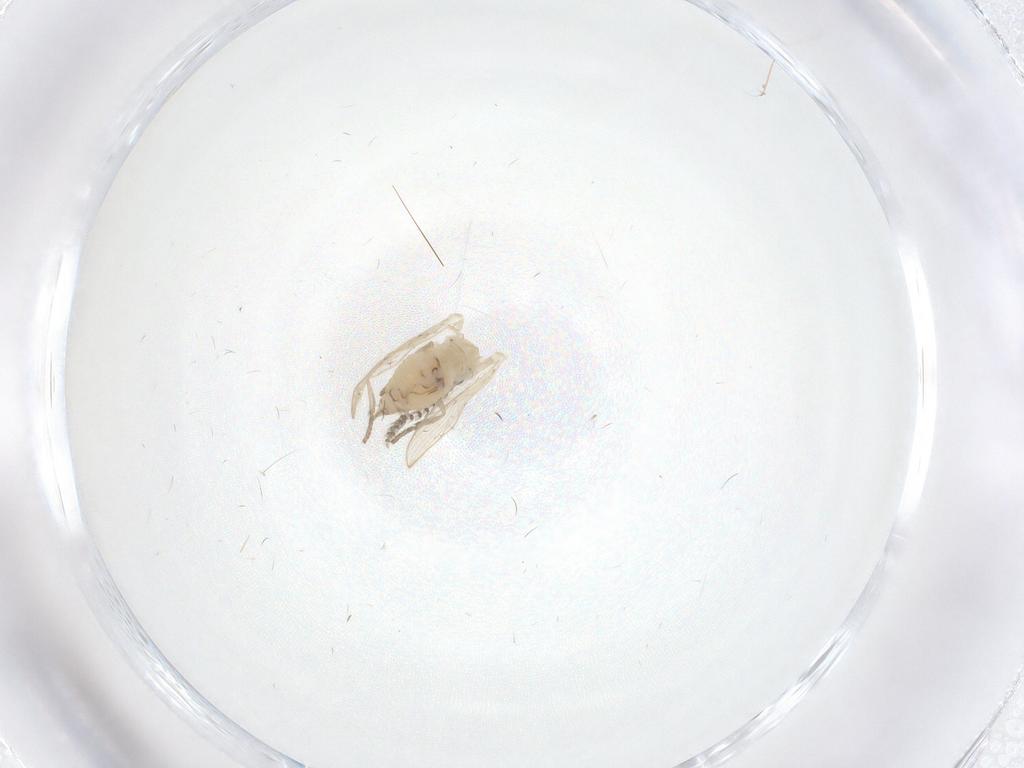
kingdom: Animalia
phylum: Arthropoda
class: Insecta
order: Diptera
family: Psychodidae
